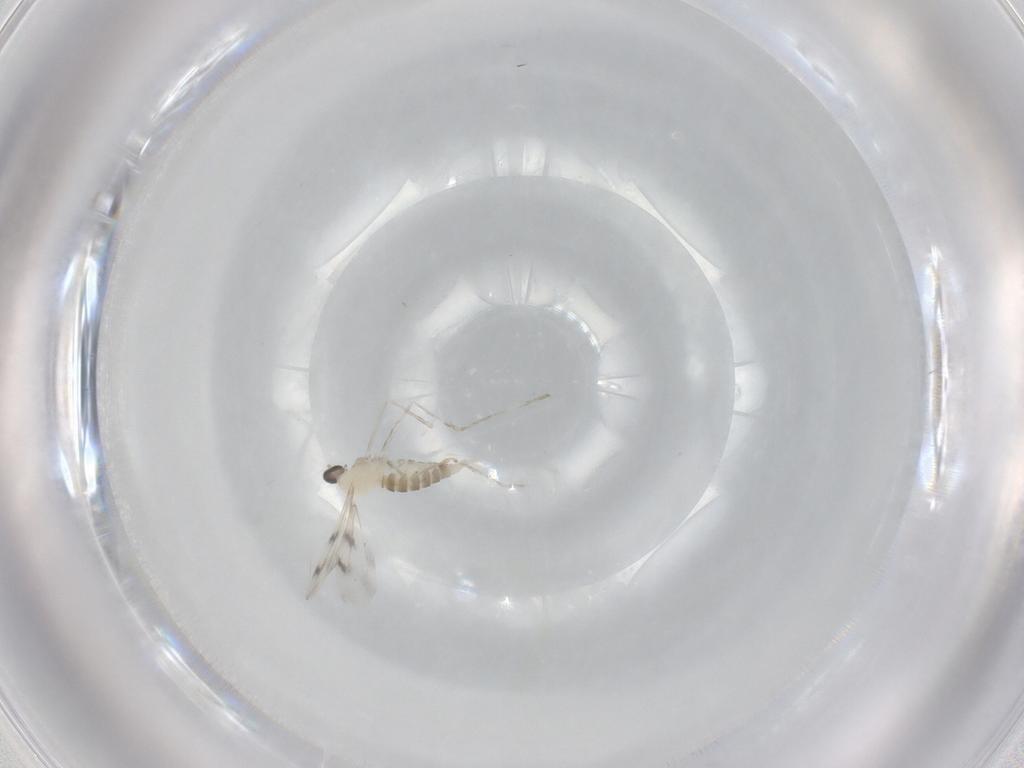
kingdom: Animalia
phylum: Arthropoda
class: Insecta
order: Diptera
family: Cecidomyiidae
